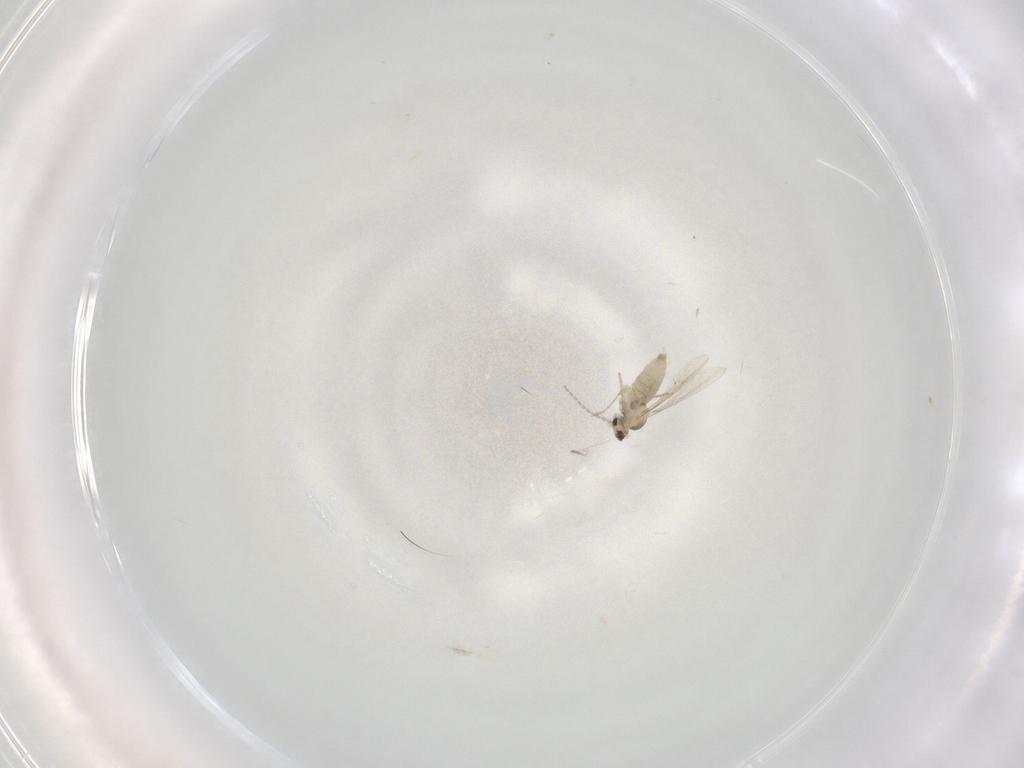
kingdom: Animalia
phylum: Arthropoda
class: Insecta
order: Diptera
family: Cecidomyiidae
